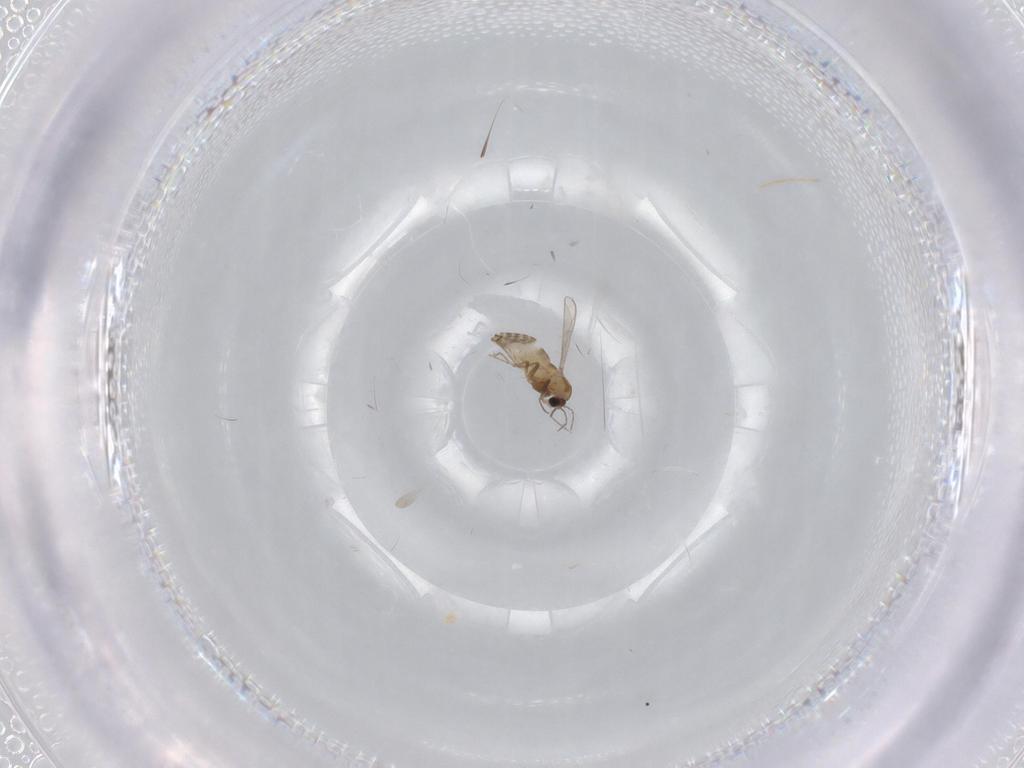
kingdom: Animalia
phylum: Arthropoda
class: Insecta
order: Diptera
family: Chironomidae
